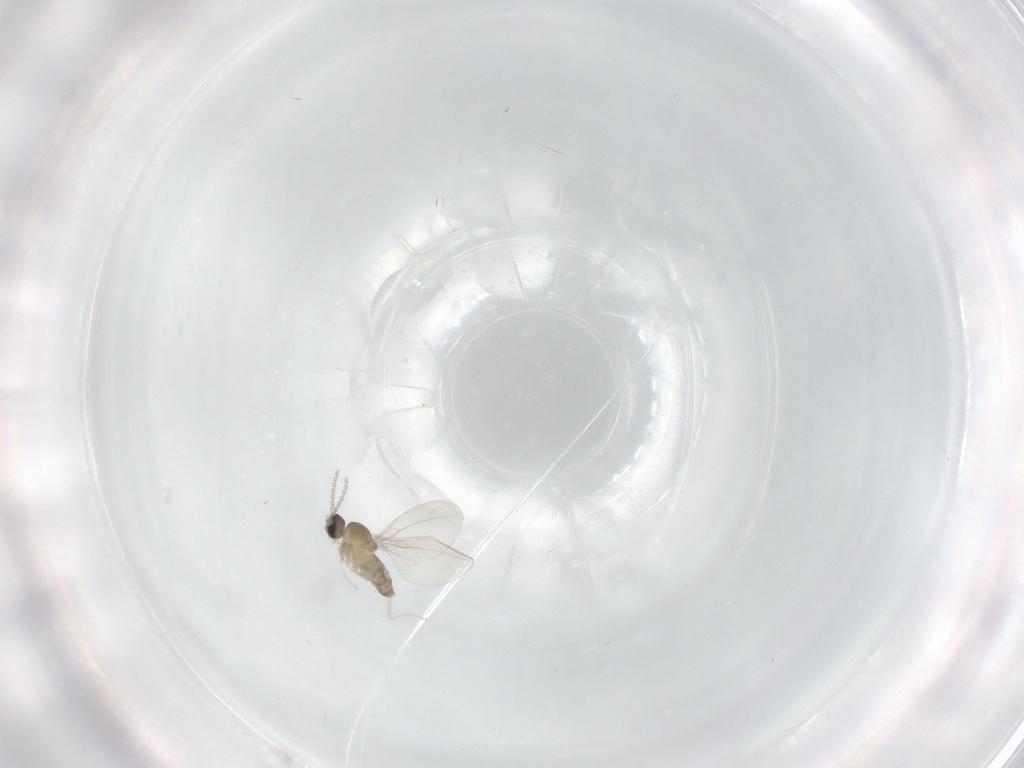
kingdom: Animalia
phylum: Arthropoda
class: Insecta
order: Diptera
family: Cecidomyiidae
